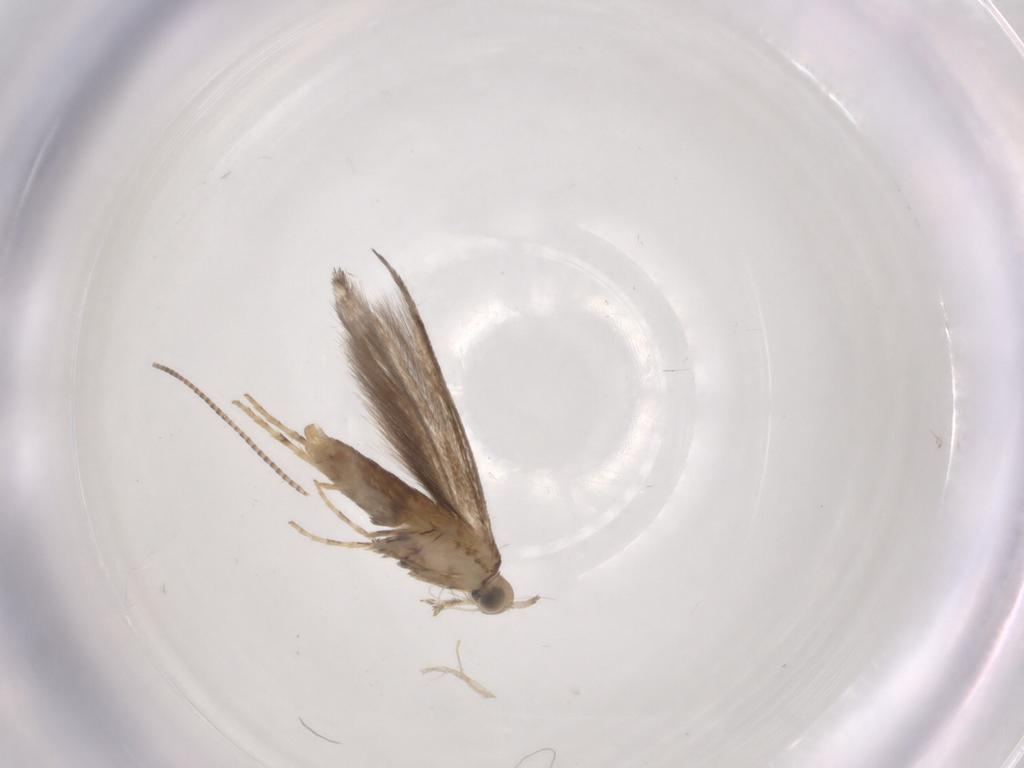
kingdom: Animalia
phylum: Arthropoda
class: Insecta
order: Lepidoptera
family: Gracillariidae
